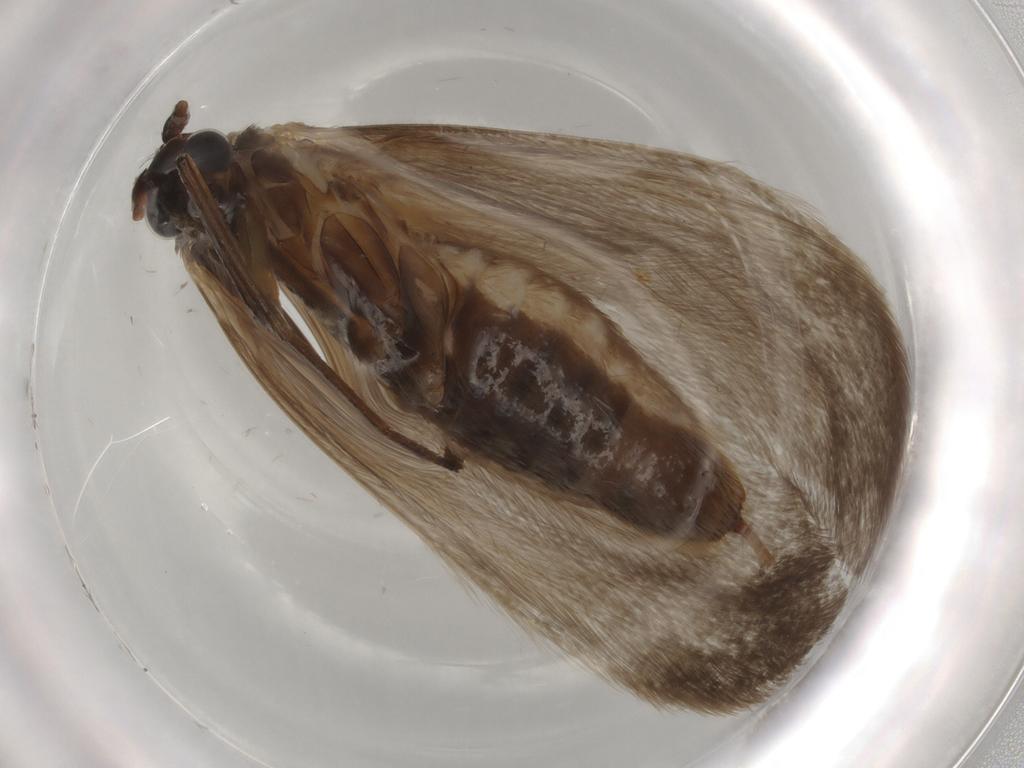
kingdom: Animalia
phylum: Arthropoda
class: Insecta
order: Lepidoptera
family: Adelidae
